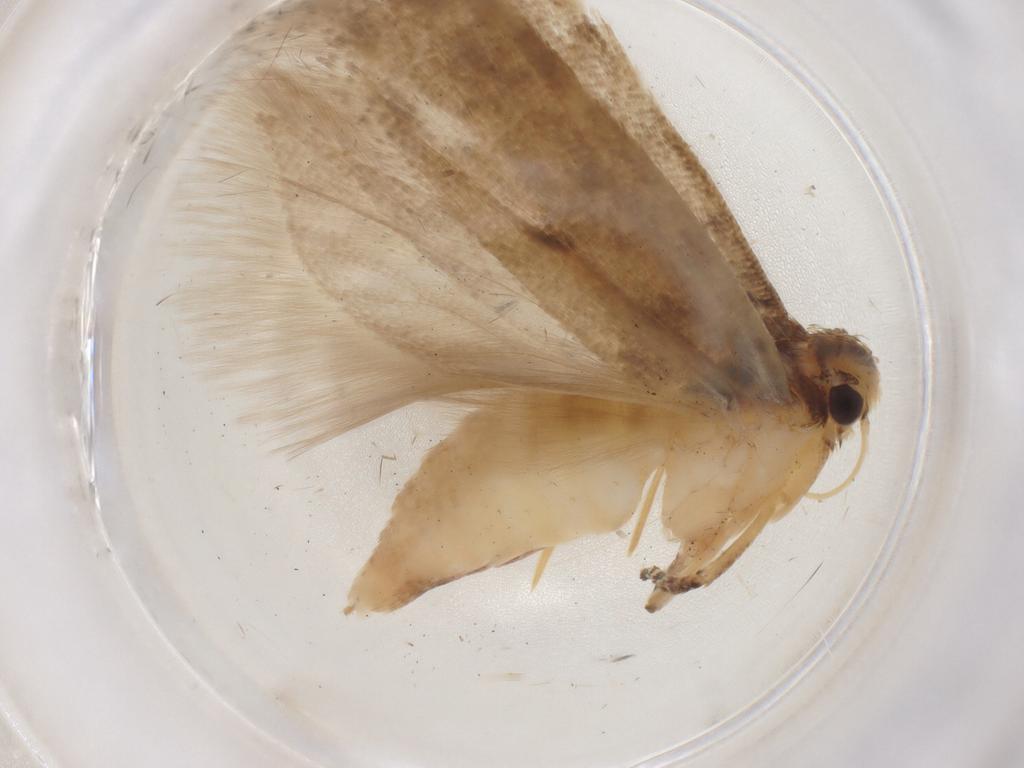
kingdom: Animalia
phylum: Arthropoda
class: Insecta
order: Lepidoptera
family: Gelechiidae
